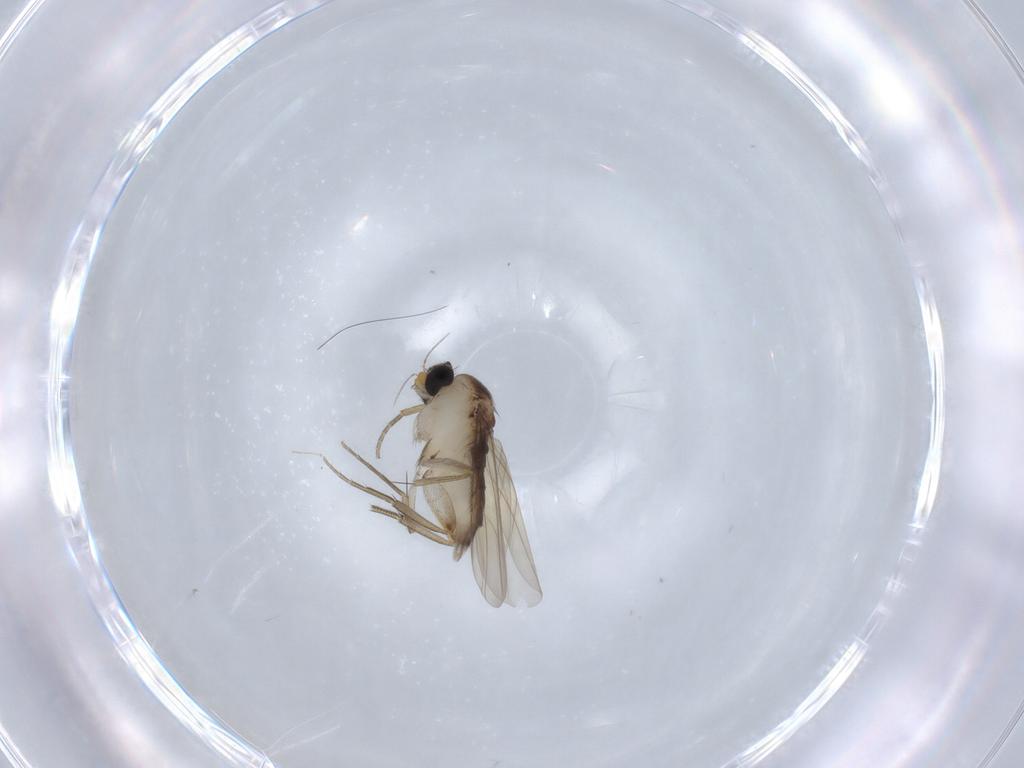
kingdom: Animalia
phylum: Arthropoda
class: Insecta
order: Diptera
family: Phoridae
